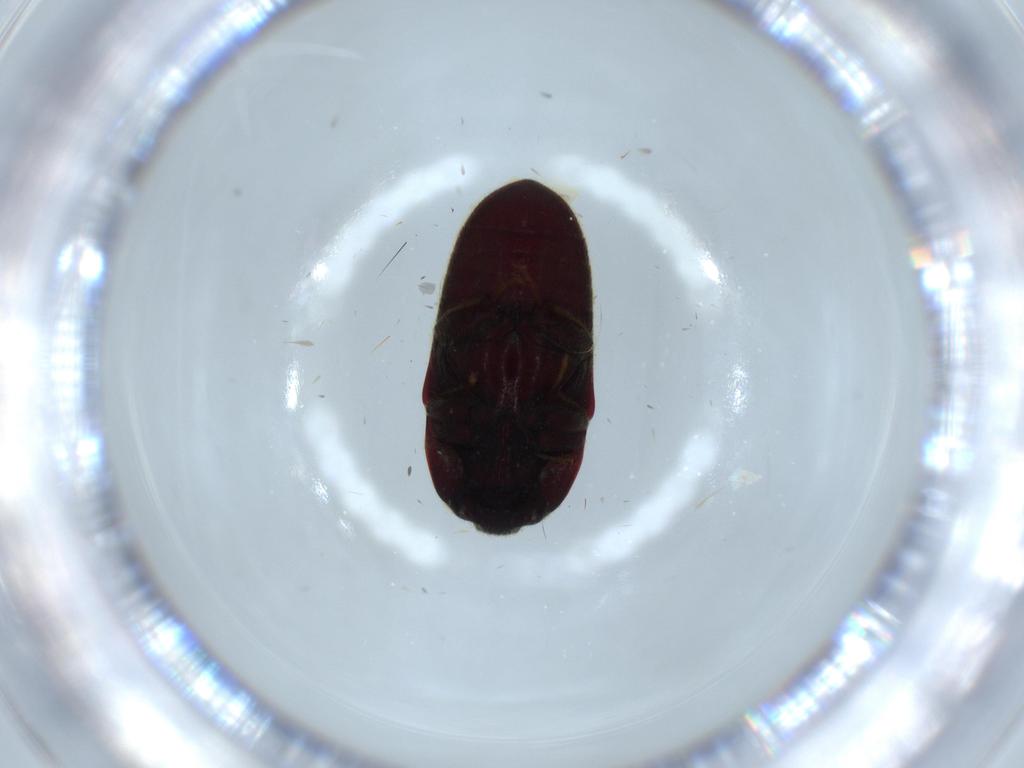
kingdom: Animalia
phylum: Arthropoda
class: Insecta
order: Coleoptera
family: Throscidae
